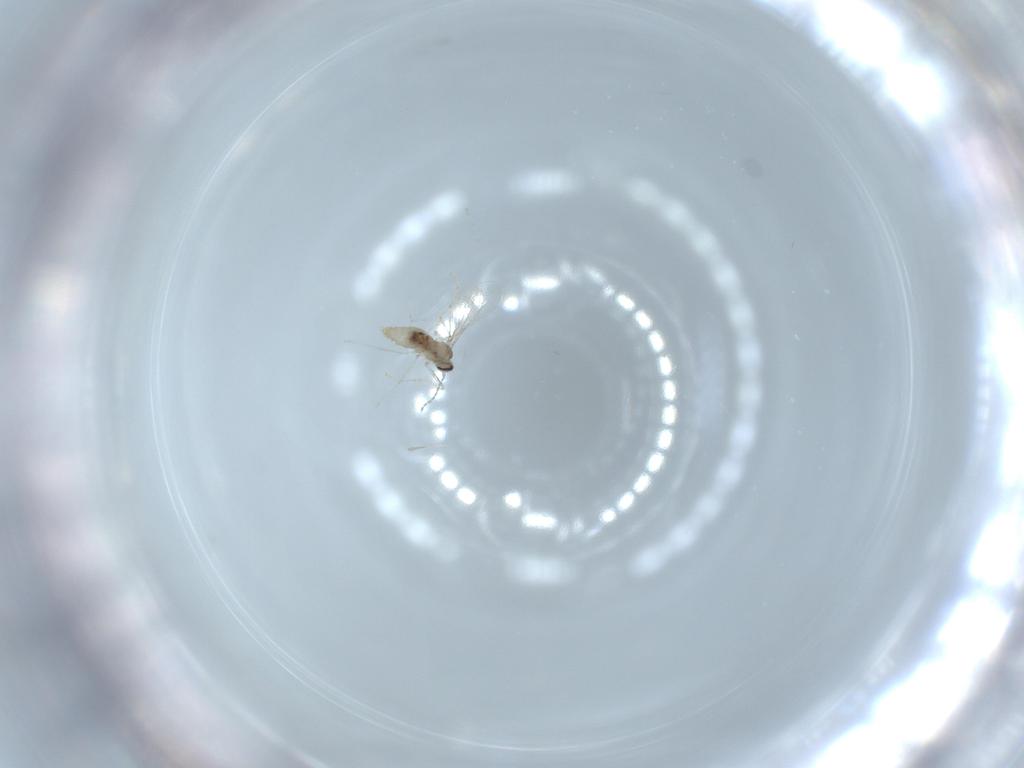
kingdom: Animalia
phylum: Arthropoda
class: Insecta
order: Diptera
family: Cecidomyiidae
